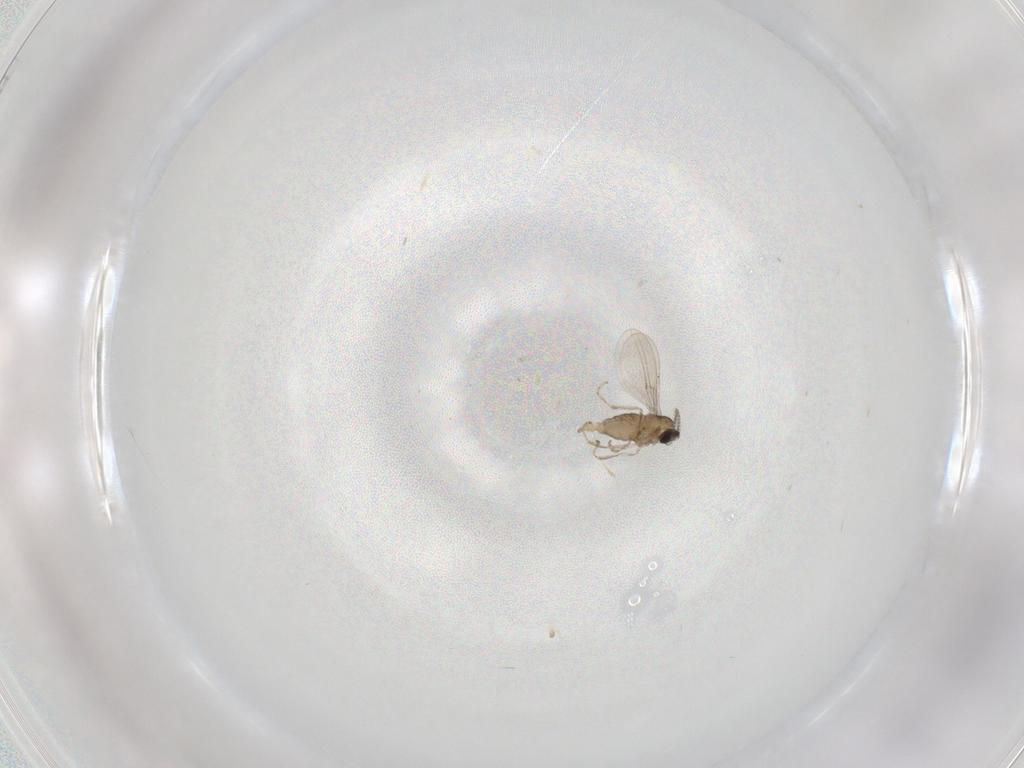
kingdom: Animalia
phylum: Arthropoda
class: Insecta
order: Diptera
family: Cecidomyiidae
